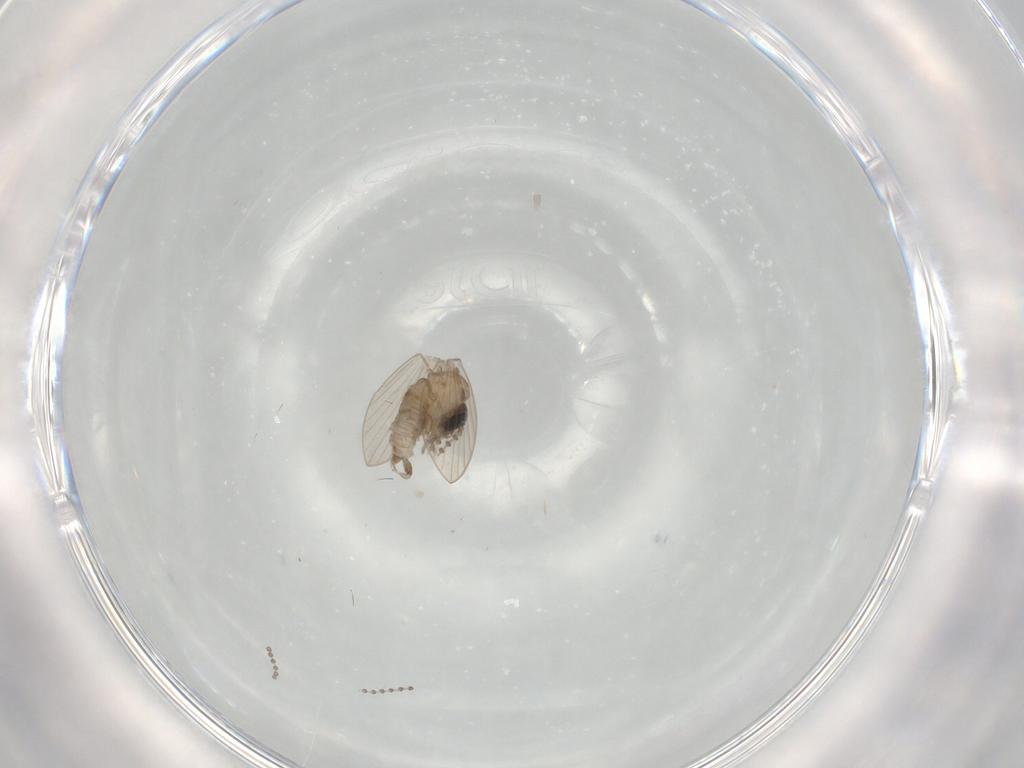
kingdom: Animalia
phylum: Arthropoda
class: Insecta
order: Diptera
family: Psychodidae
